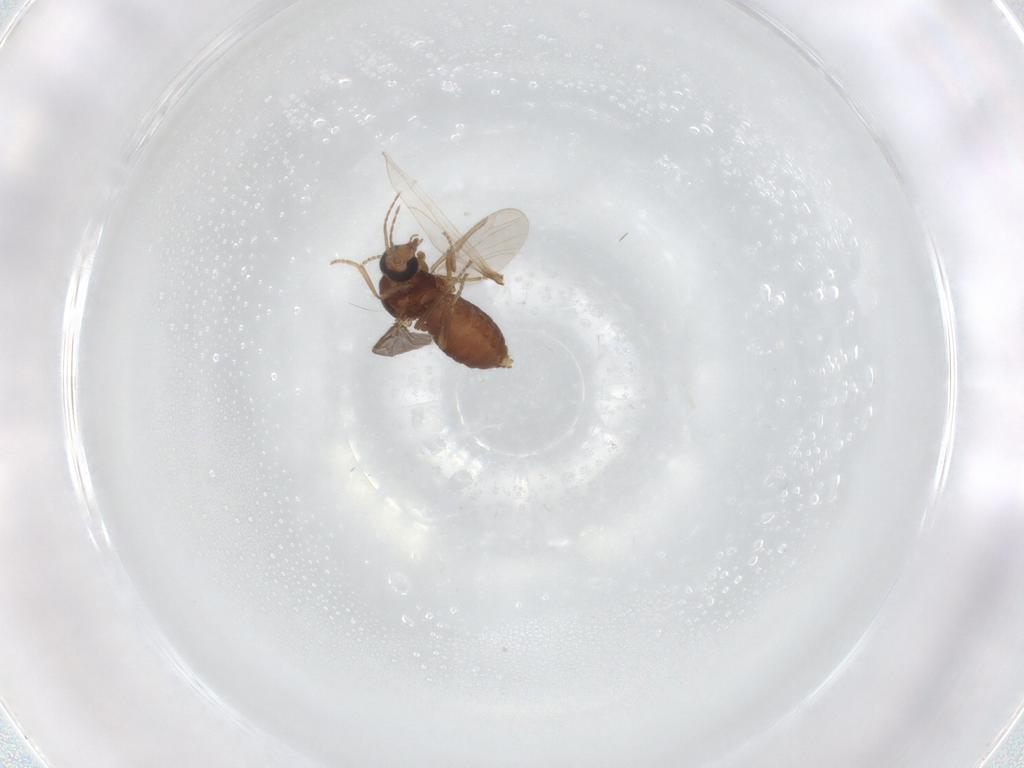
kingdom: Animalia
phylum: Arthropoda
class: Insecta
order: Diptera
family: Ceratopogonidae
